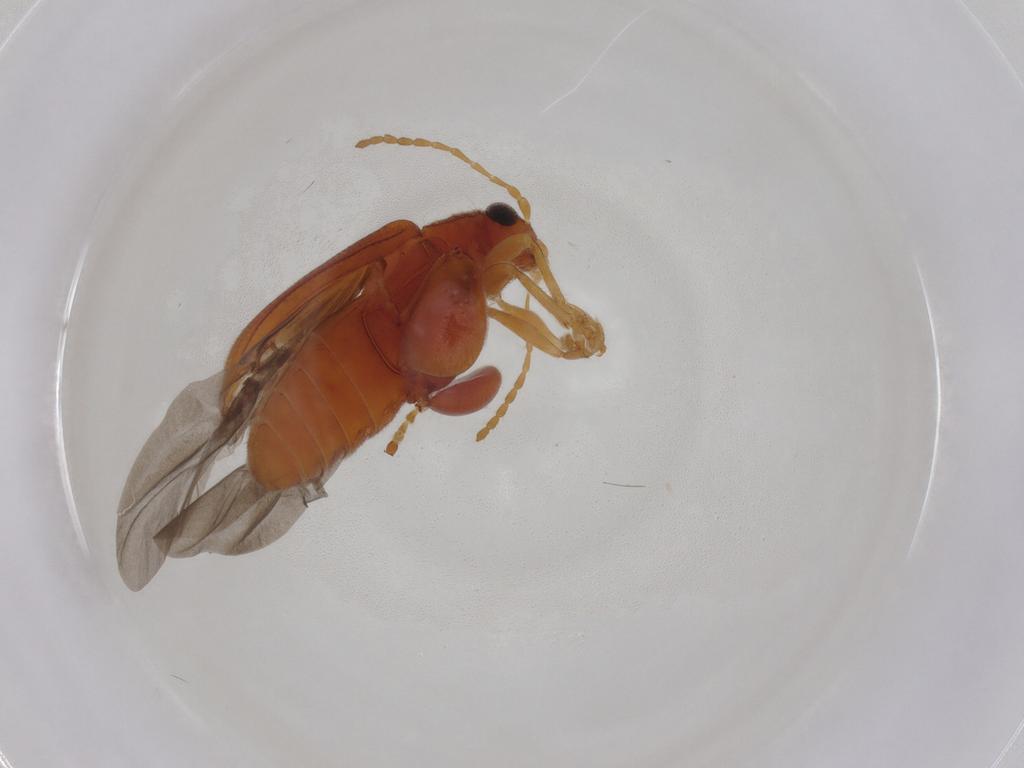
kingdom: Animalia
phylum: Arthropoda
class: Insecta
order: Coleoptera
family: Chrysomelidae
